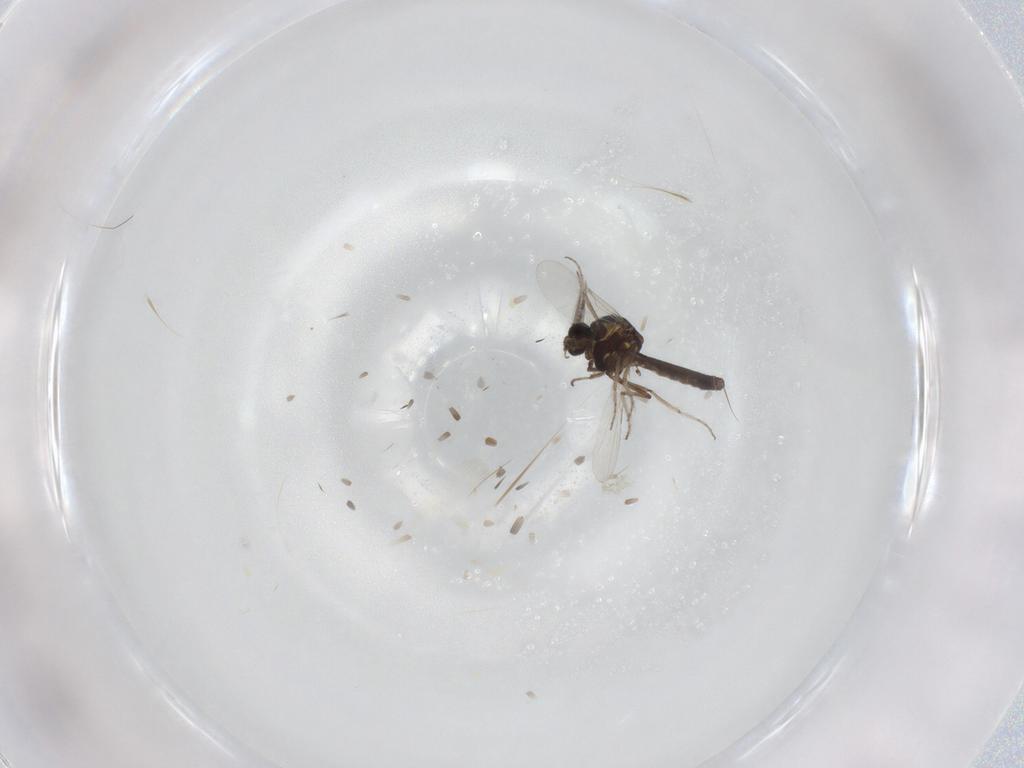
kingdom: Animalia
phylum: Arthropoda
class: Insecta
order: Diptera
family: Ceratopogonidae
